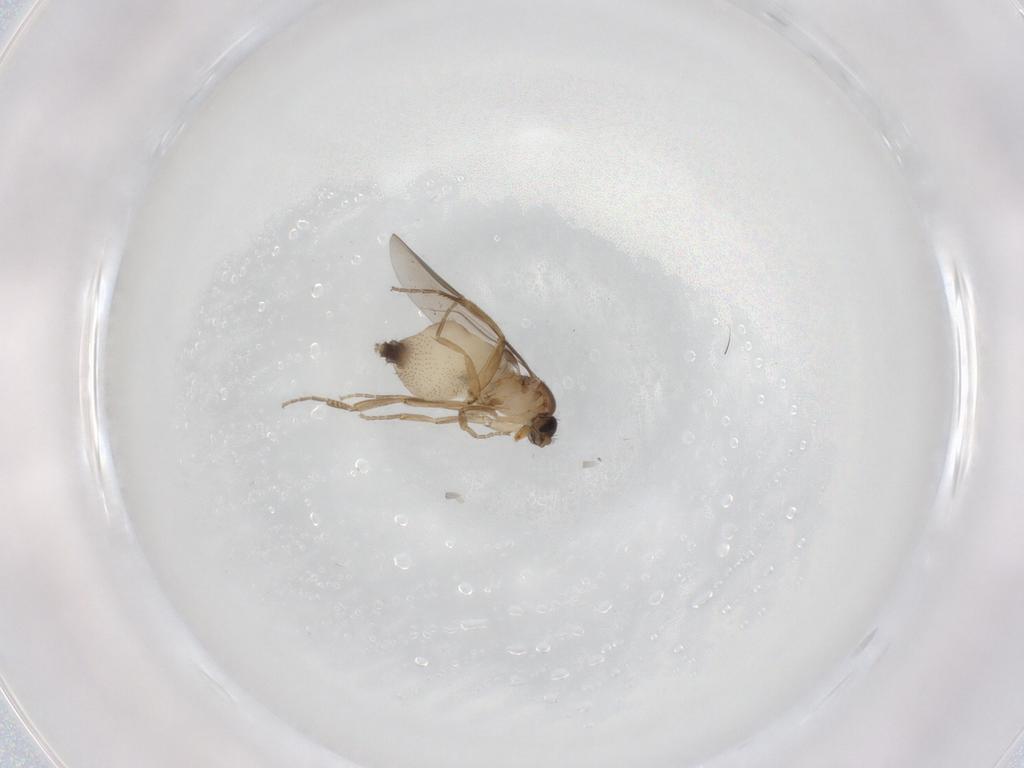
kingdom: Animalia
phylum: Arthropoda
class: Insecta
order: Diptera
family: Phoridae
